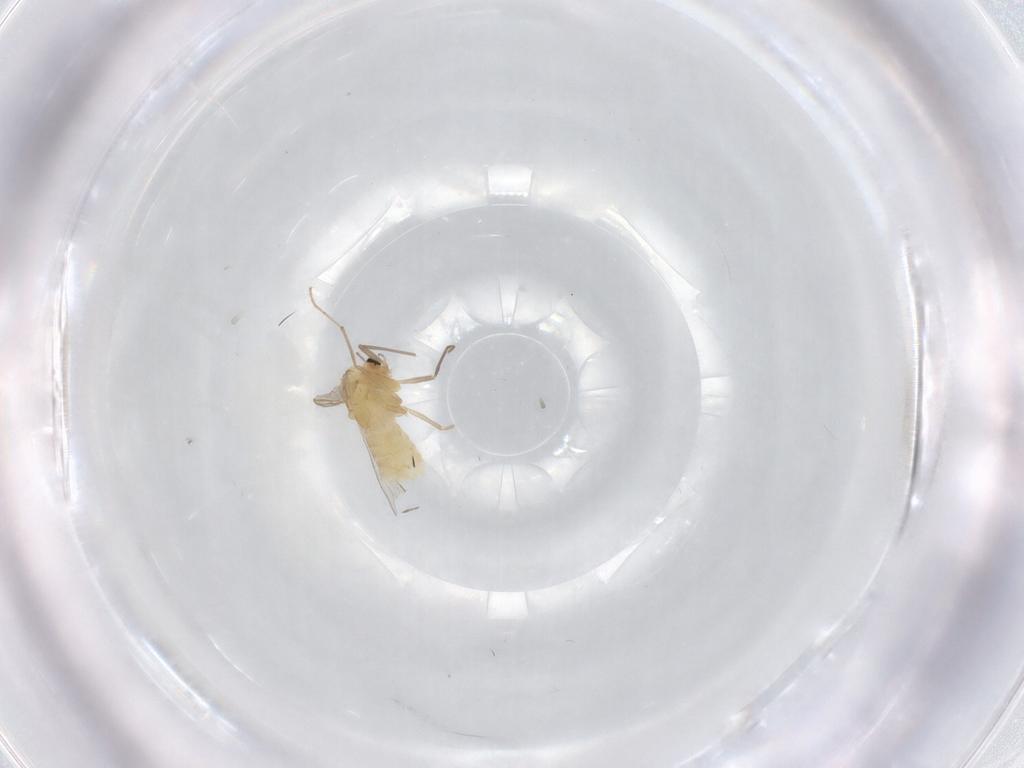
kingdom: Animalia
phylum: Arthropoda
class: Insecta
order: Diptera
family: Chironomidae
